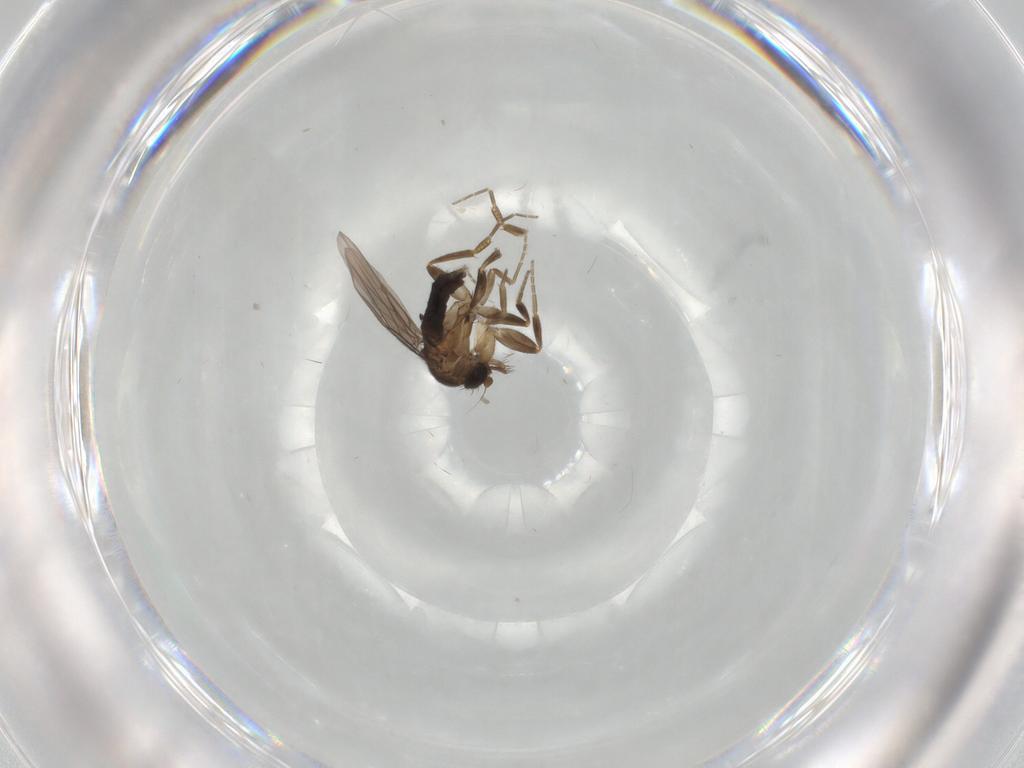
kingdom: Animalia
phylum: Arthropoda
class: Insecta
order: Diptera
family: Phoridae
